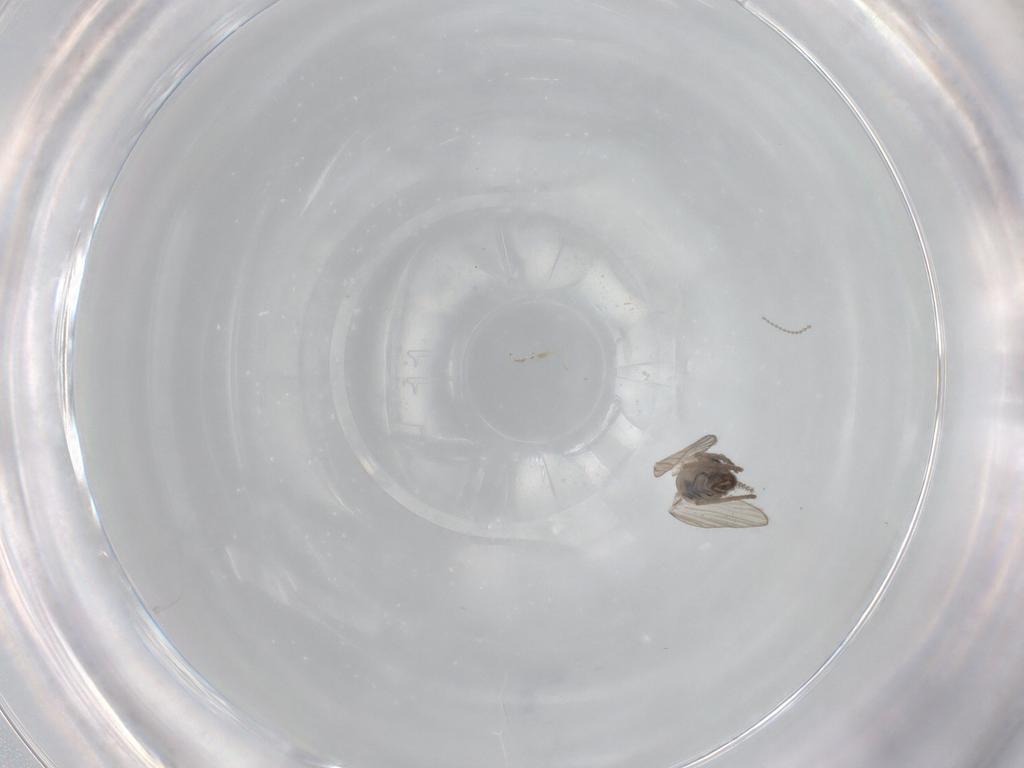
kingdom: Animalia
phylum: Arthropoda
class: Insecta
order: Diptera
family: Psychodidae
